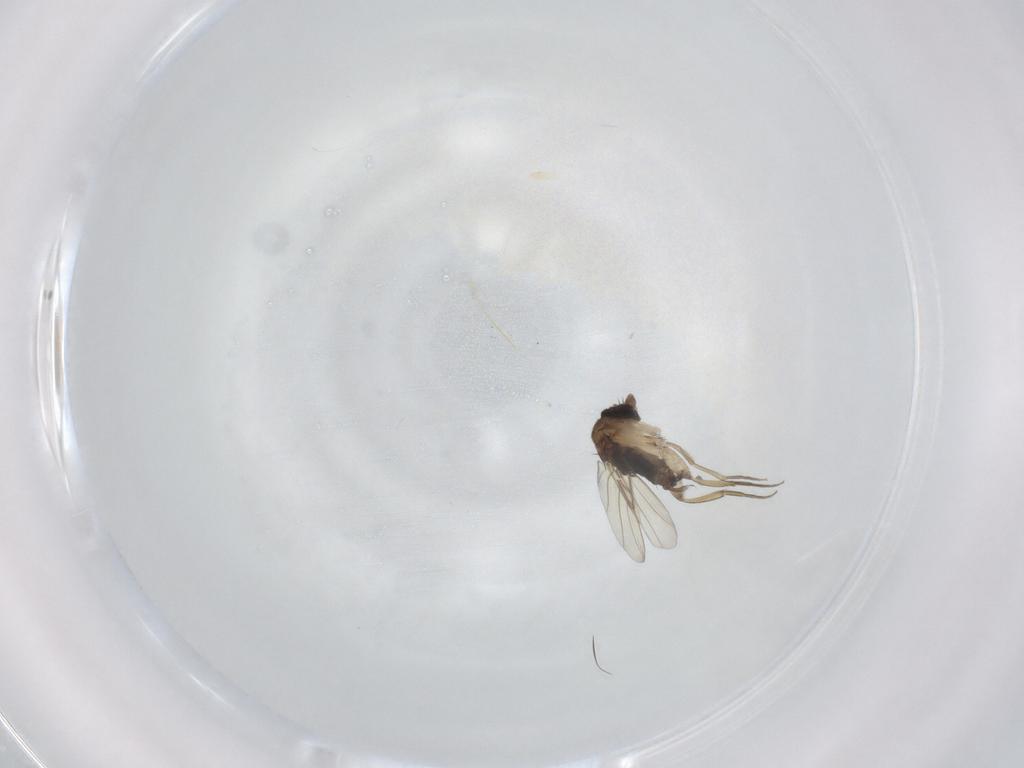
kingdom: Animalia
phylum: Arthropoda
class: Insecta
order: Diptera
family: Phoridae
